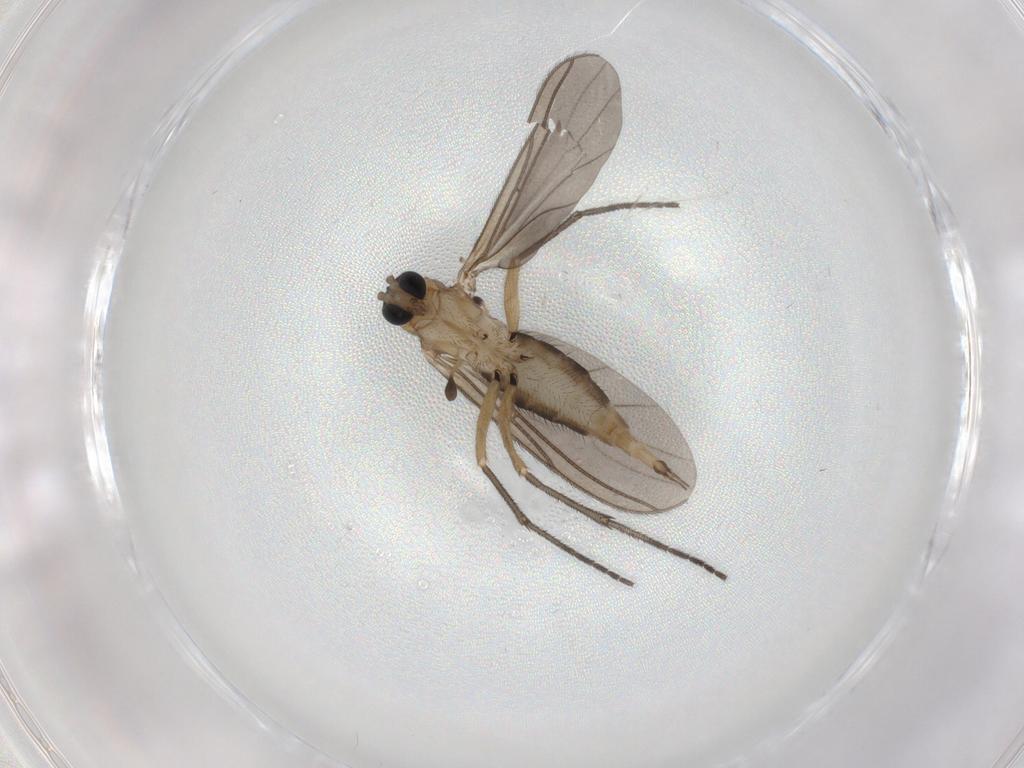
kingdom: Animalia
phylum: Arthropoda
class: Insecta
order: Diptera
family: Sciaridae
